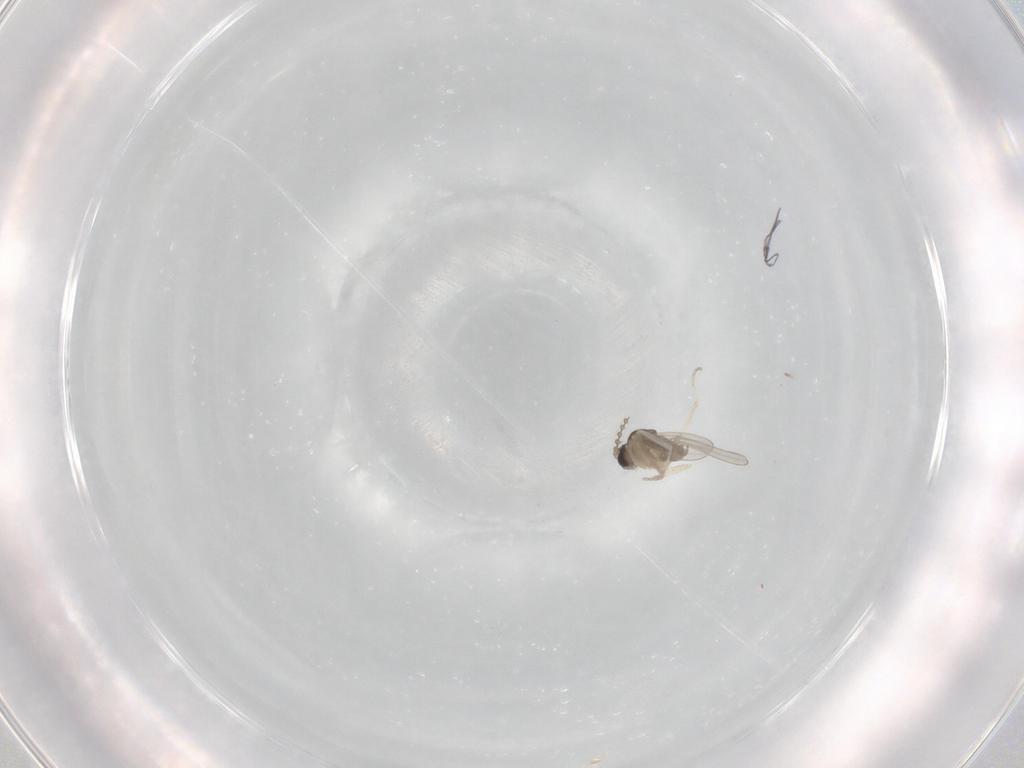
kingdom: Animalia
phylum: Arthropoda
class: Insecta
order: Diptera
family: Cecidomyiidae
